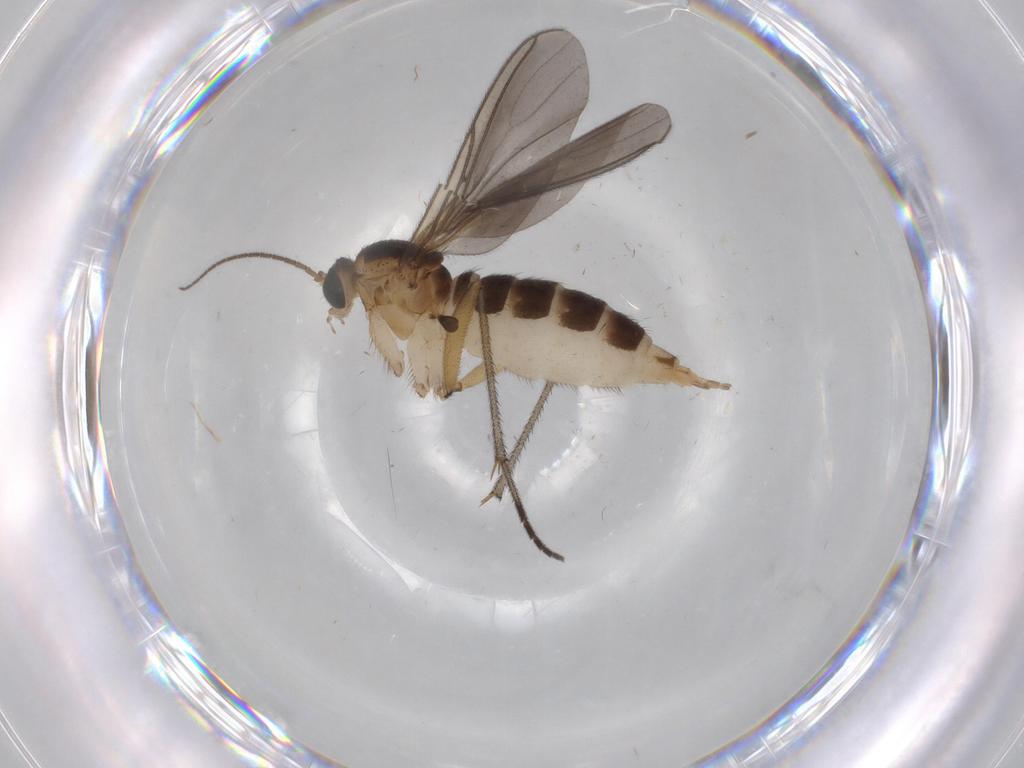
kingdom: Animalia
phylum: Arthropoda
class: Insecta
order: Diptera
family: Sciaridae
